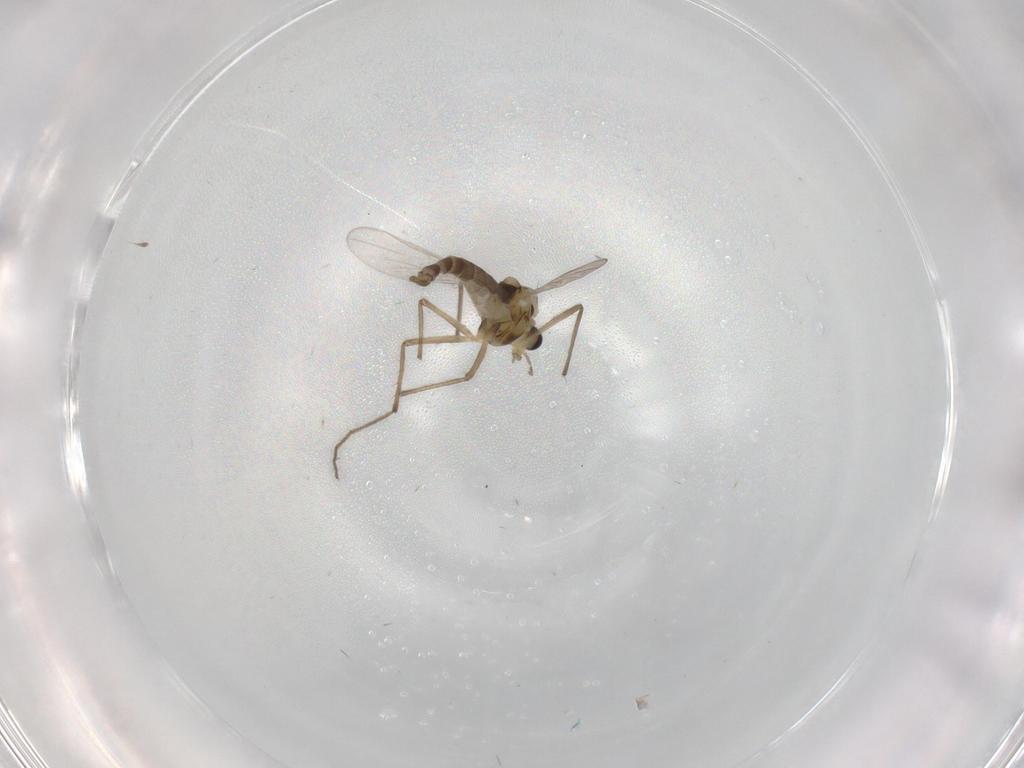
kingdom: Animalia
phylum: Arthropoda
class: Insecta
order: Diptera
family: Chironomidae
